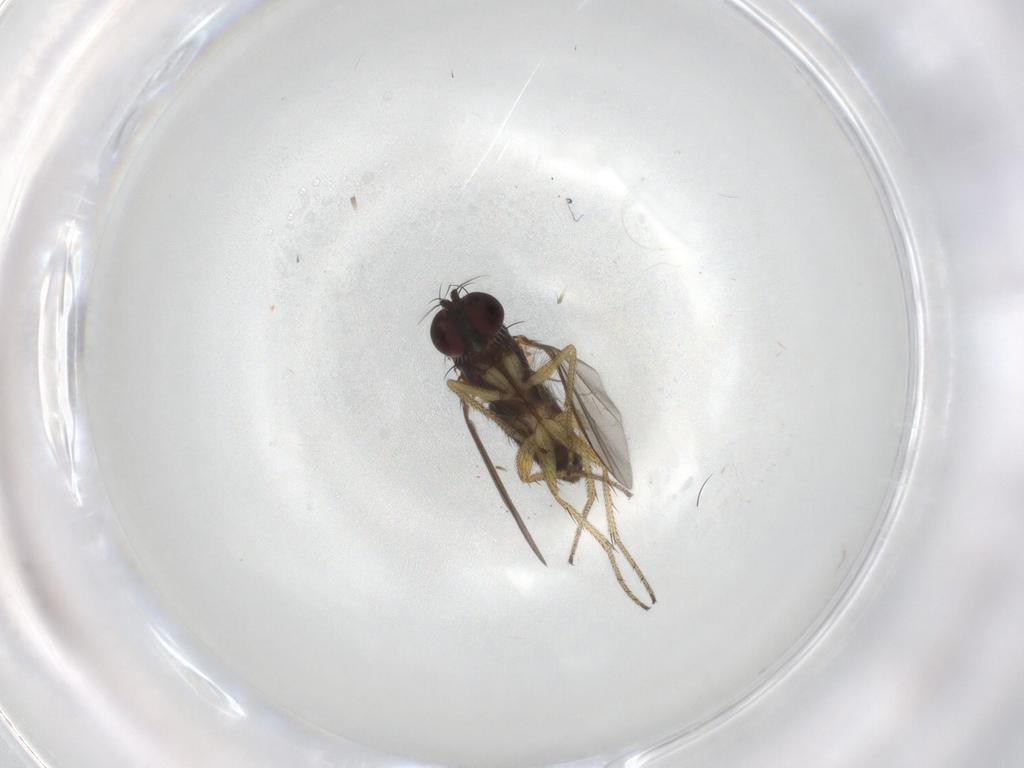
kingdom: Animalia
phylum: Arthropoda
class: Insecta
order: Diptera
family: Chironomidae
